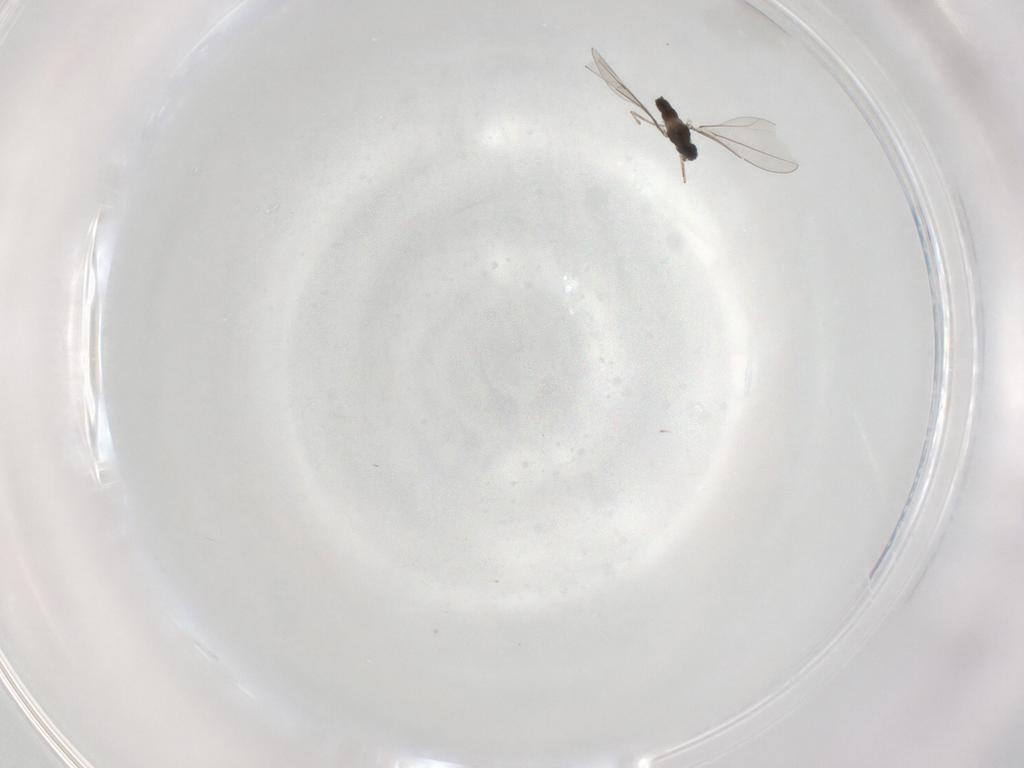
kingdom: Animalia
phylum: Arthropoda
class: Insecta
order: Diptera
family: Cecidomyiidae
